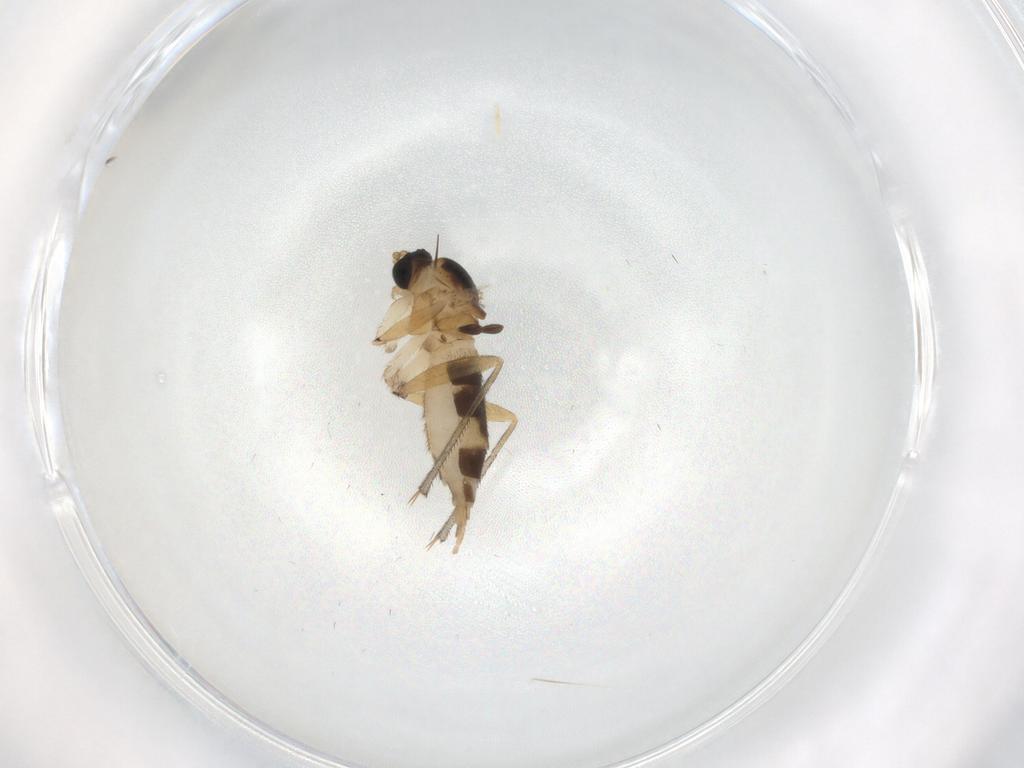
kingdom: Animalia
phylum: Arthropoda
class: Insecta
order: Diptera
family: Sciaridae
